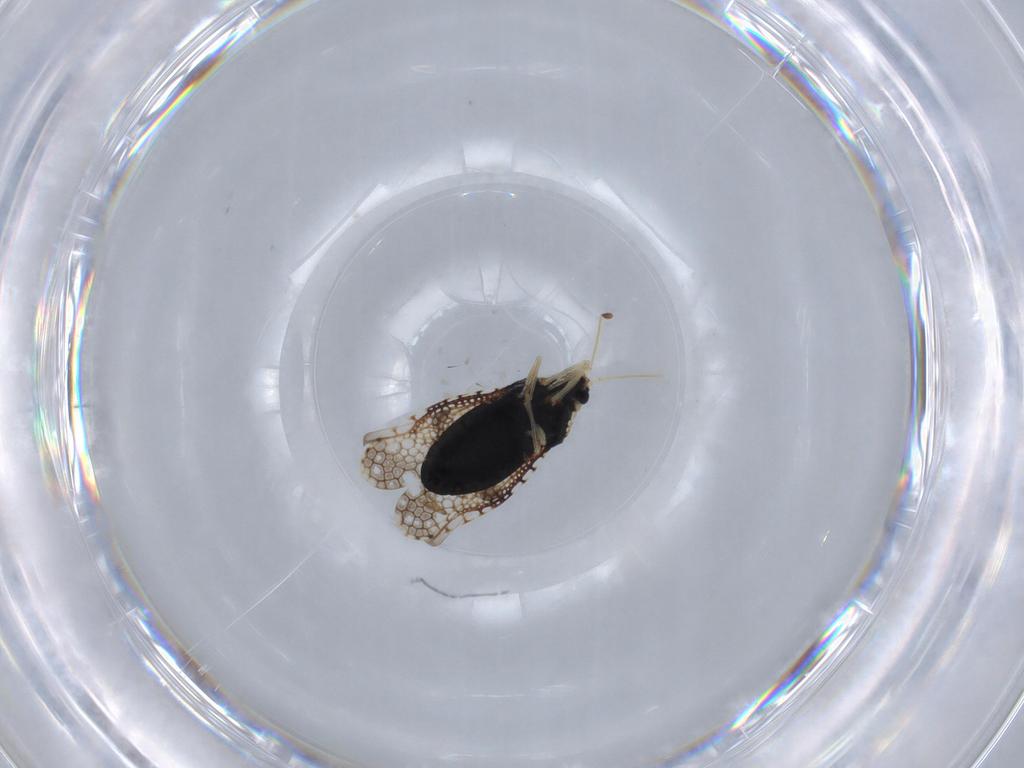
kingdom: Animalia
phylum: Arthropoda
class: Insecta
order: Hemiptera
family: Tingidae
